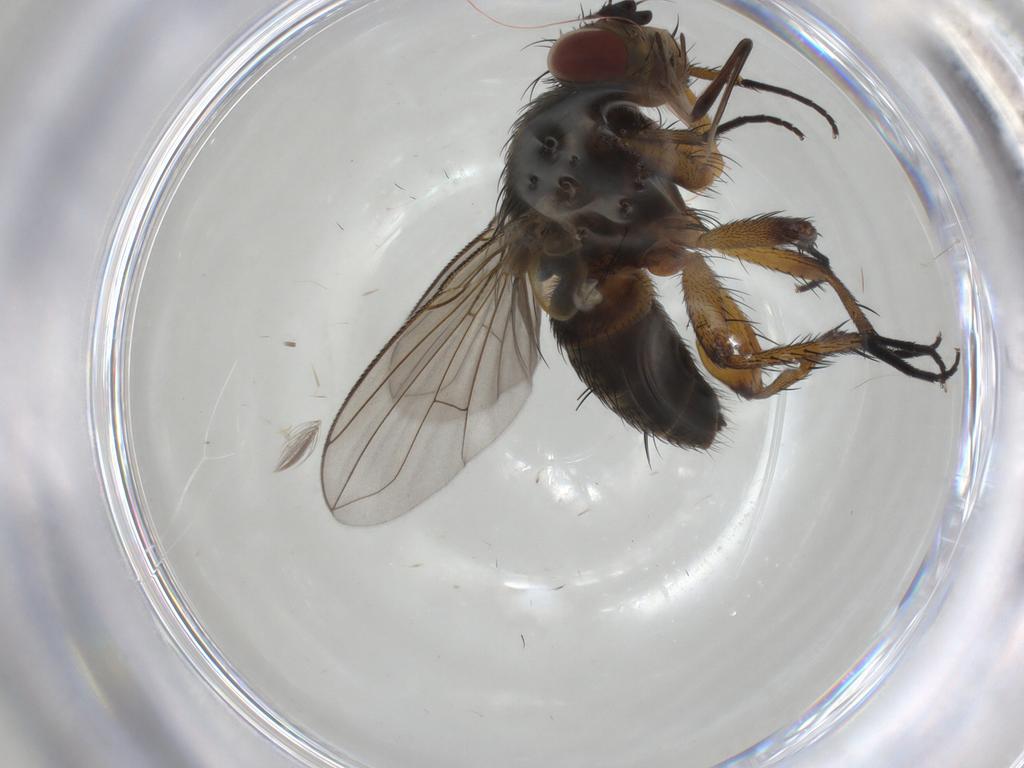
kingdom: Animalia
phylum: Arthropoda
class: Insecta
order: Diptera
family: Tachinidae
